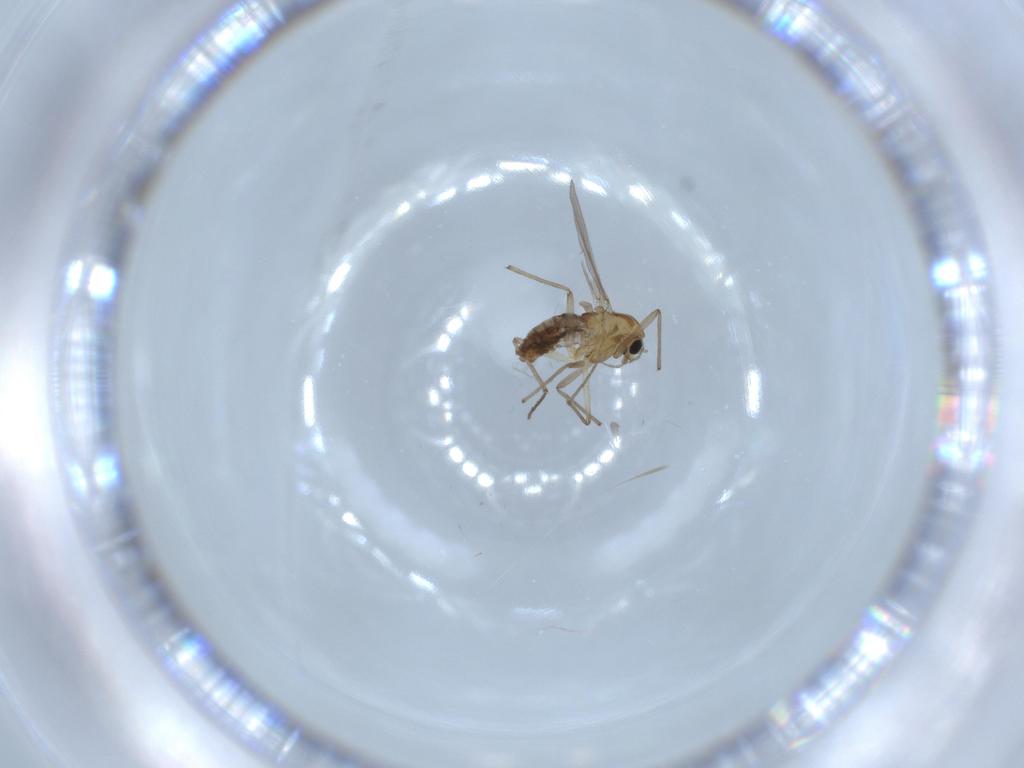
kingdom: Animalia
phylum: Arthropoda
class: Insecta
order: Diptera
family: Chironomidae
